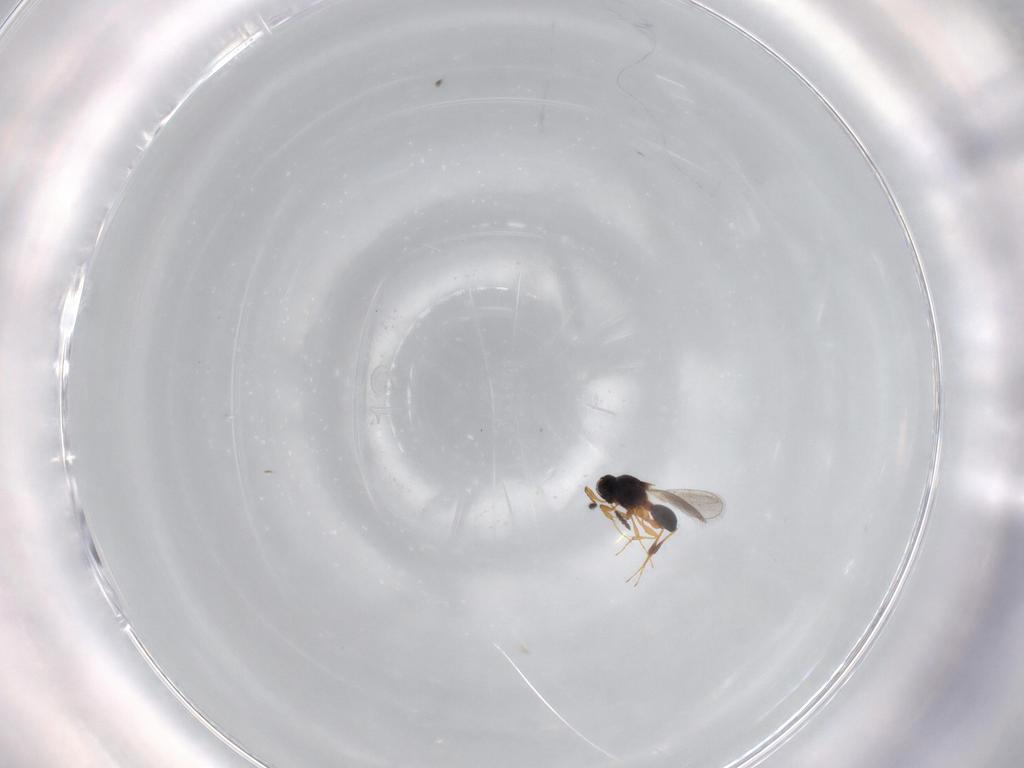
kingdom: Animalia
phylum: Arthropoda
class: Insecta
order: Hymenoptera
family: Platygastridae
